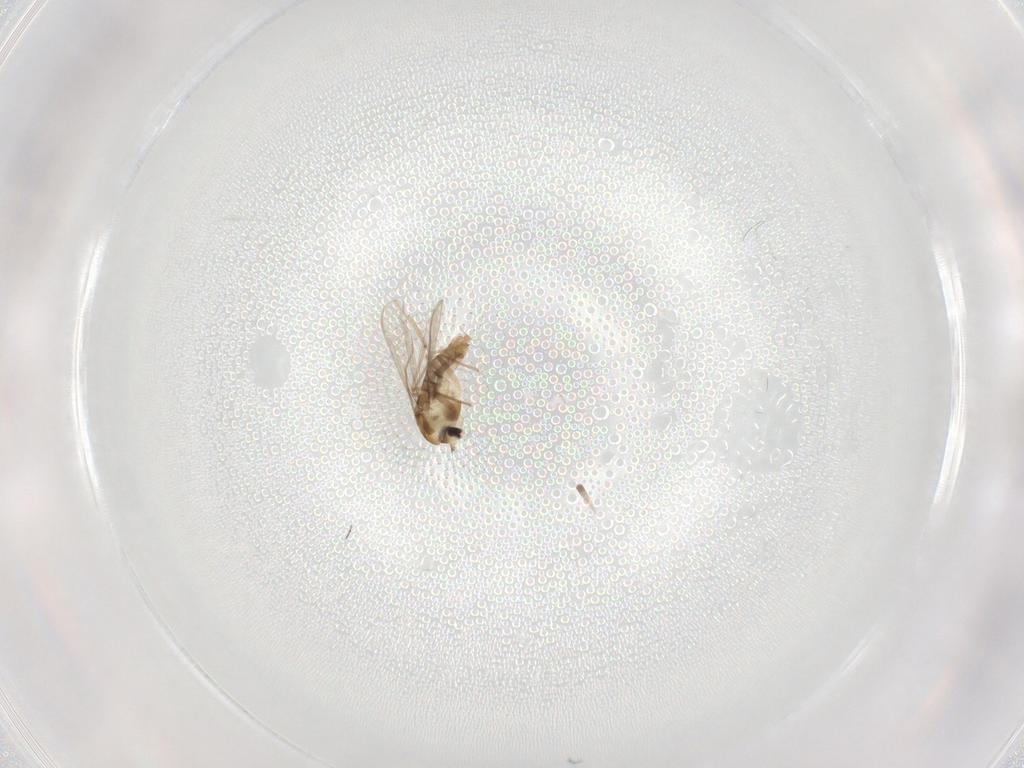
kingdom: Animalia
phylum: Arthropoda
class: Insecta
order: Diptera
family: Chironomidae
